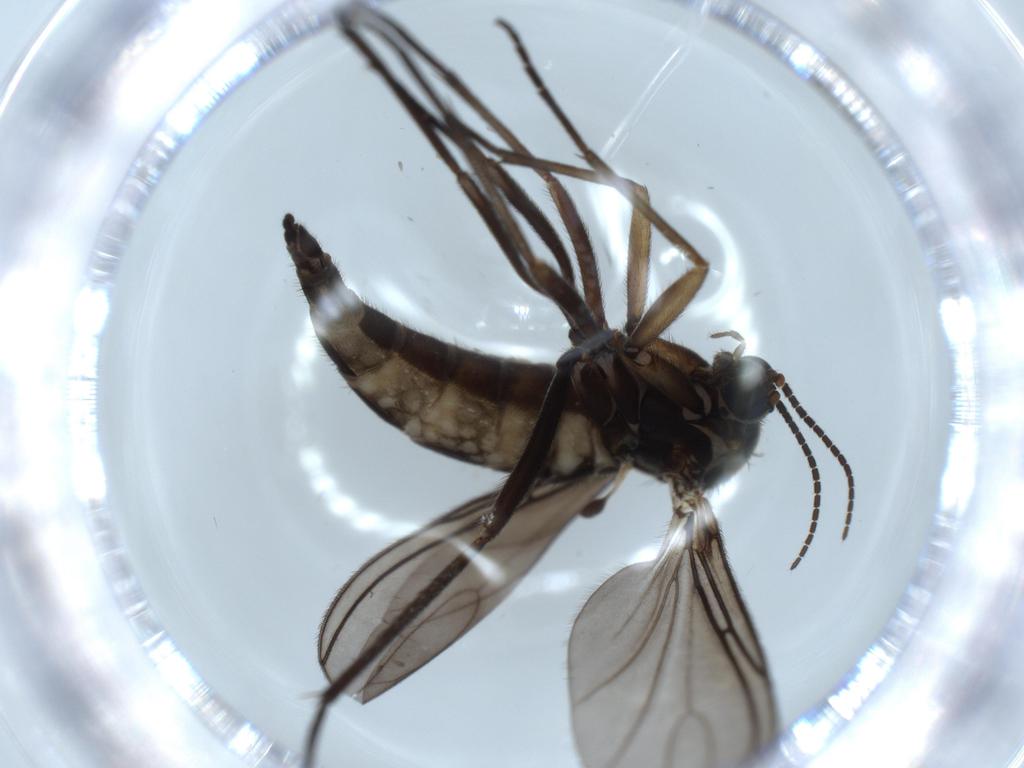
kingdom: Animalia
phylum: Arthropoda
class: Insecta
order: Diptera
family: Sciaridae
